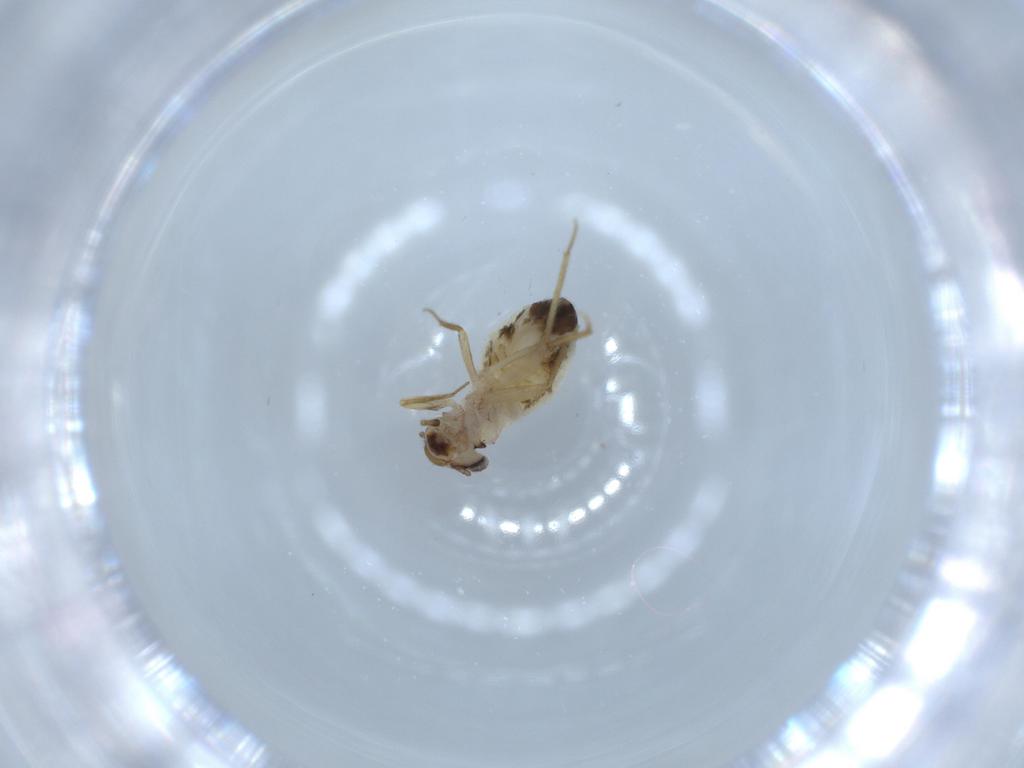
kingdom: Animalia
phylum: Arthropoda
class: Insecta
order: Psocodea
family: Lepidopsocidae
